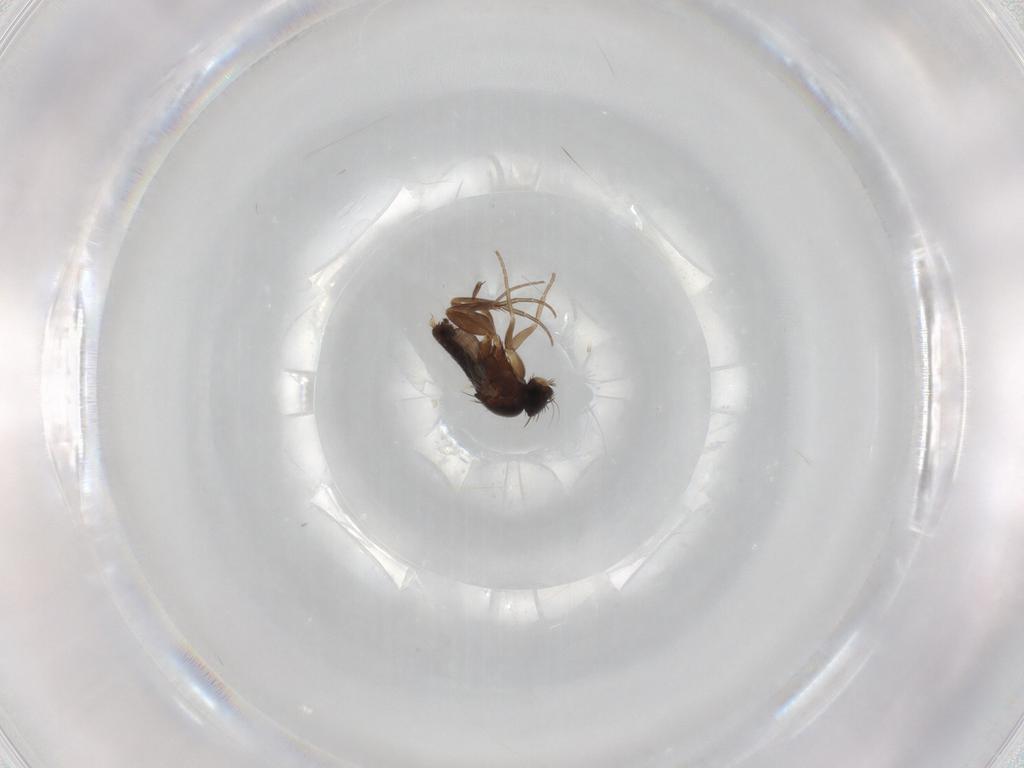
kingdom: Animalia
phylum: Arthropoda
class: Insecta
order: Diptera
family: Phoridae
